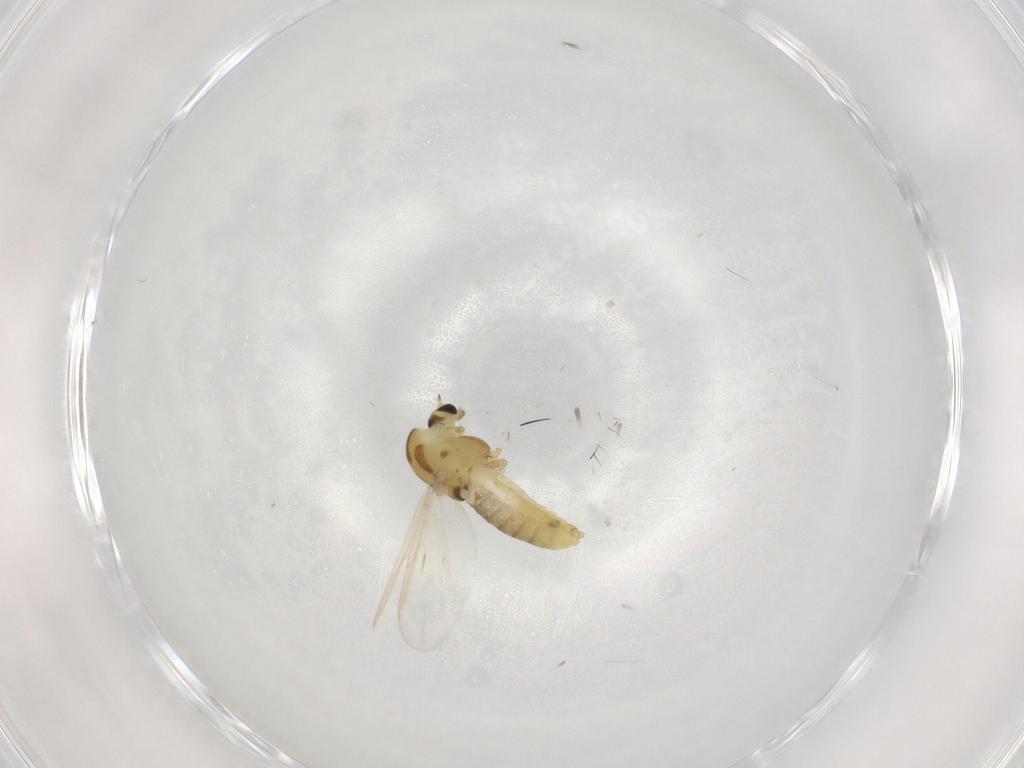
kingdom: Animalia
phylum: Arthropoda
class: Insecta
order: Diptera
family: Chironomidae
